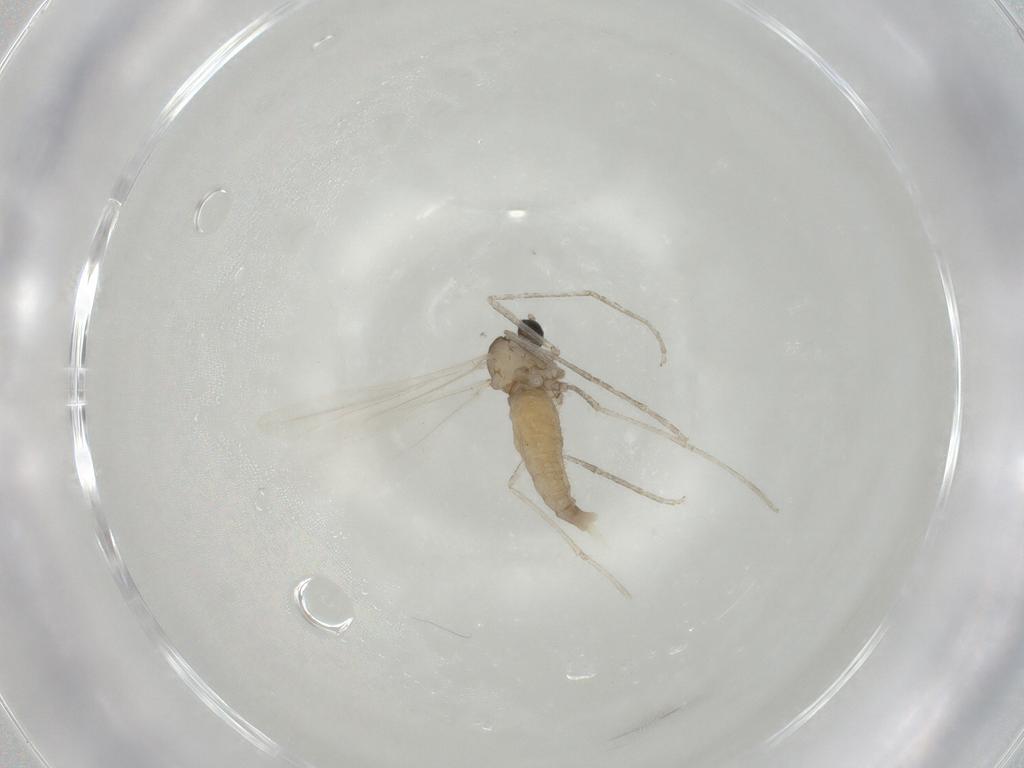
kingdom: Animalia
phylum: Arthropoda
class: Insecta
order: Diptera
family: Cecidomyiidae
